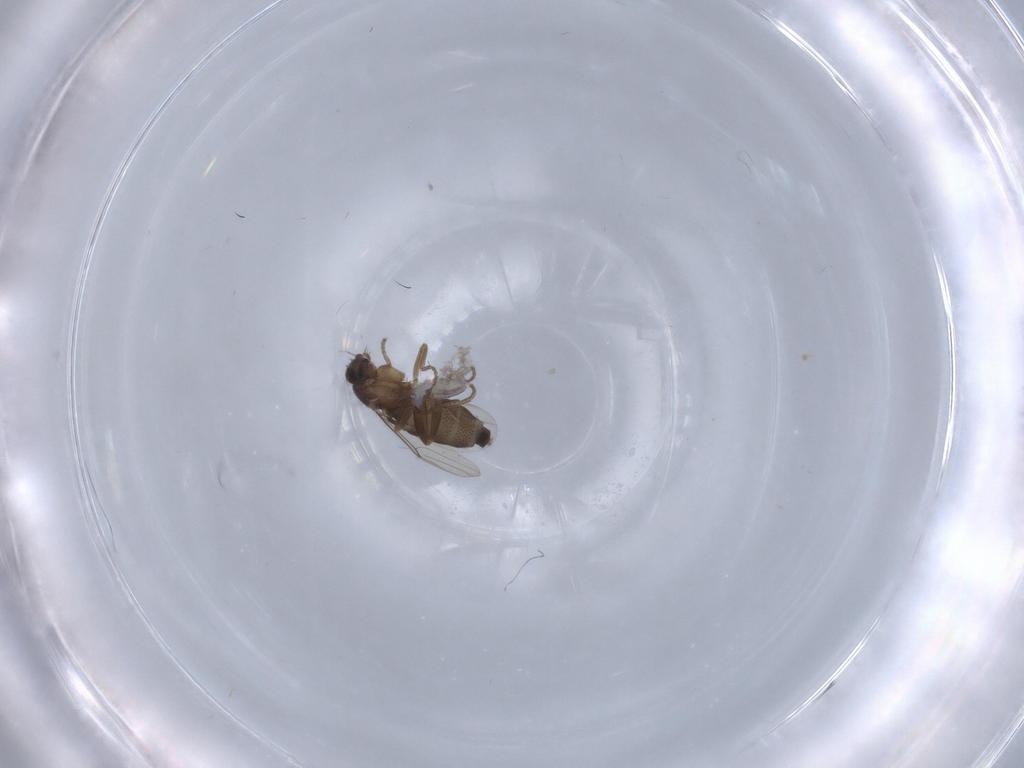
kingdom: Animalia
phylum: Arthropoda
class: Insecta
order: Diptera
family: Phoridae
